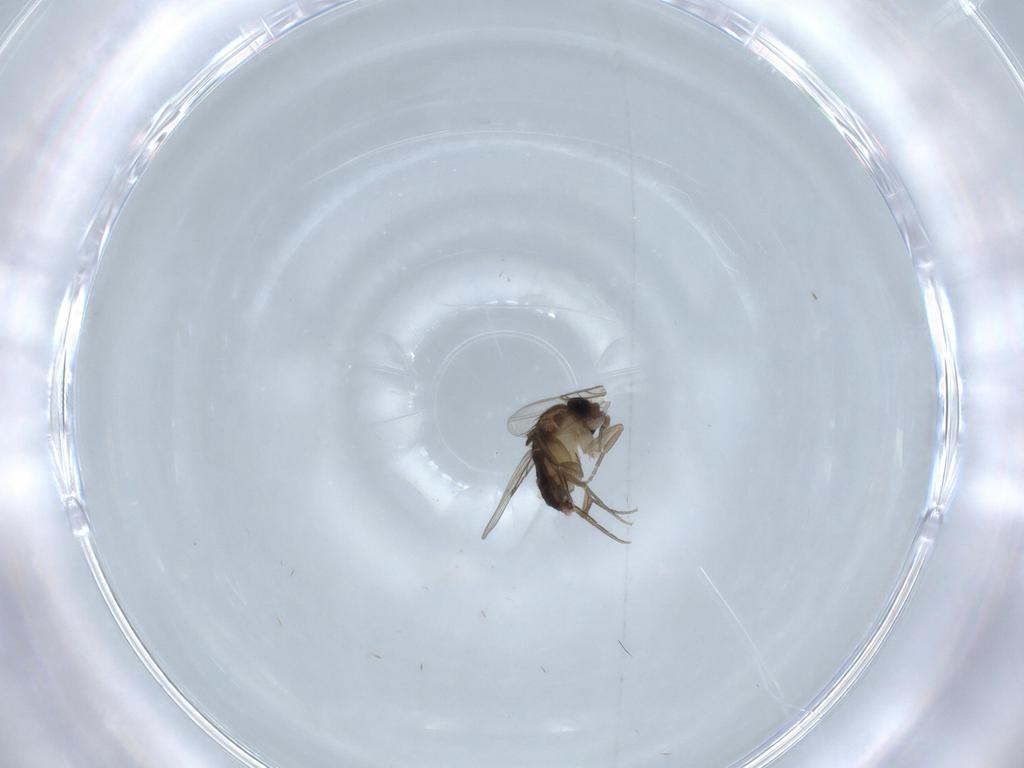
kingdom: Animalia
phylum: Arthropoda
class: Insecta
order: Diptera
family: Phoridae
